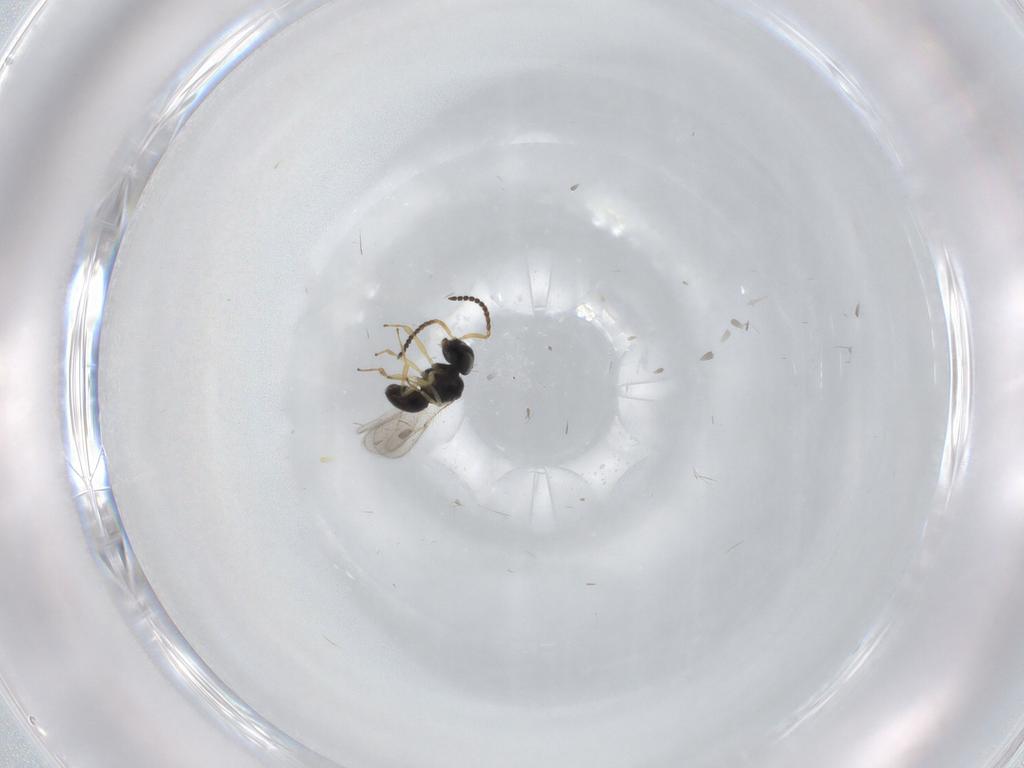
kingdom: Animalia
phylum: Arthropoda
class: Insecta
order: Hymenoptera
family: Scelionidae
